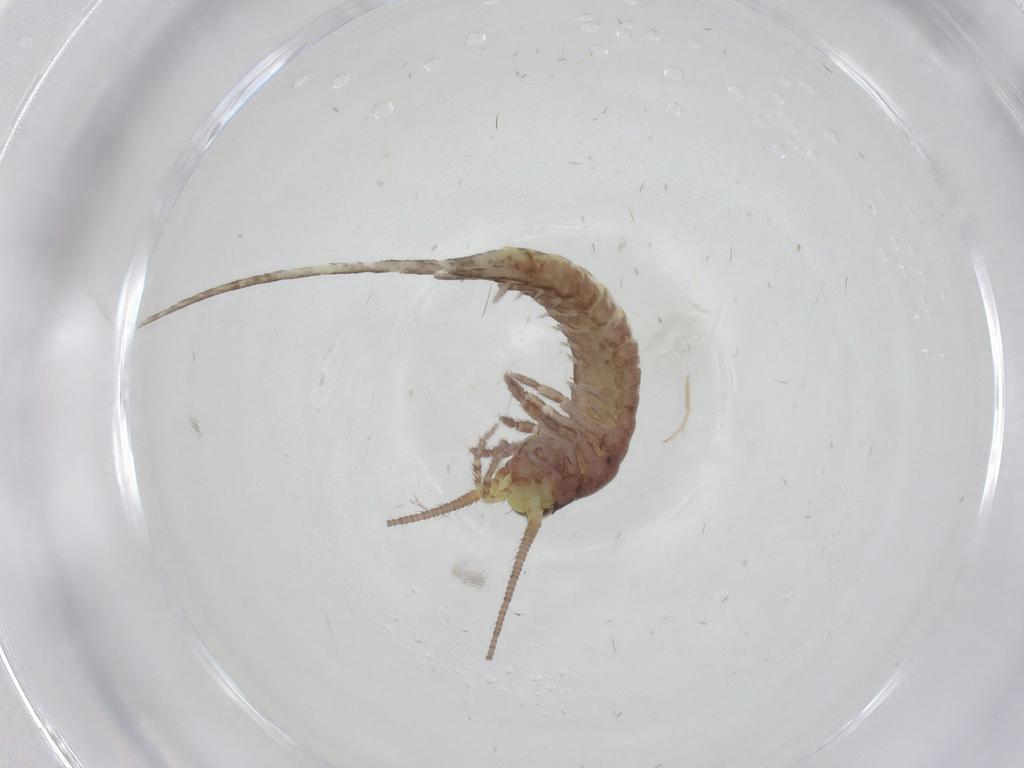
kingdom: Animalia
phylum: Arthropoda
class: Insecta
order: Archaeognatha
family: Machilidae
